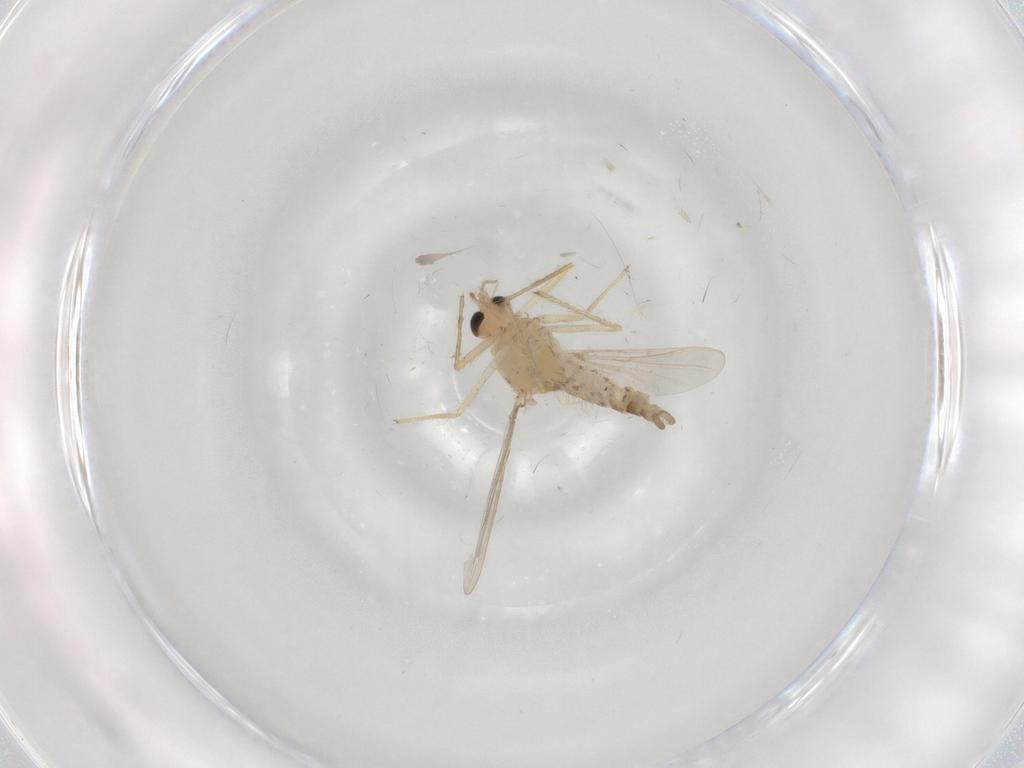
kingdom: Animalia
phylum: Arthropoda
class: Insecta
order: Diptera
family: Chironomidae
